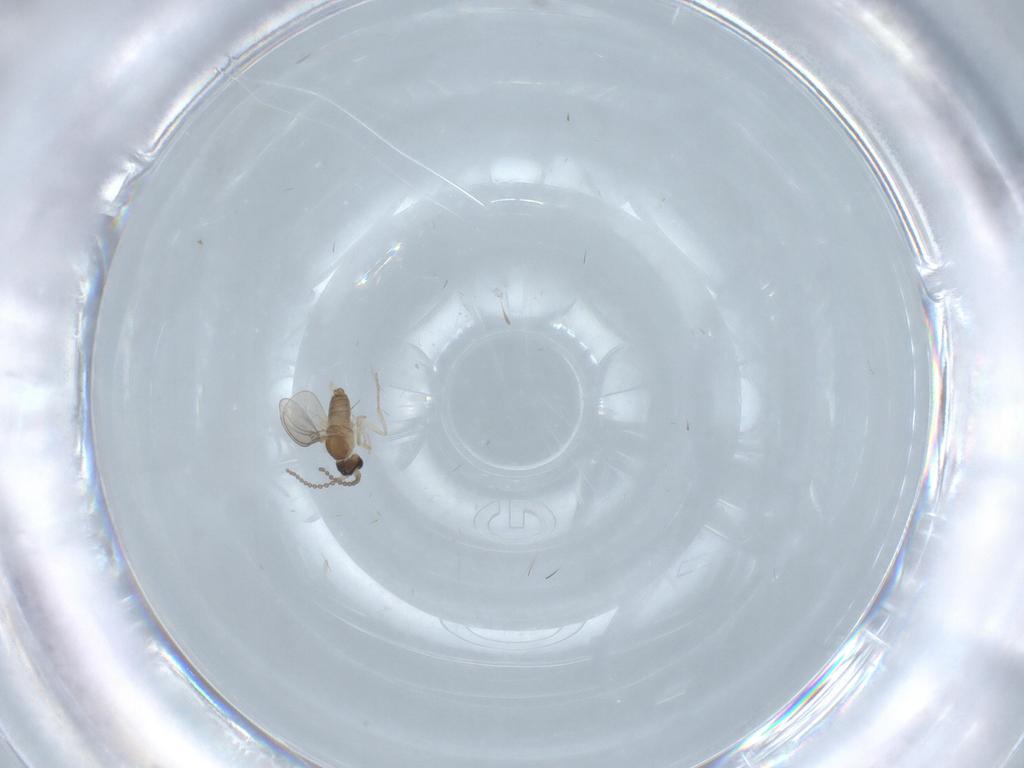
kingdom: Animalia
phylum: Arthropoda
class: Insecta
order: Diptera
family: Cecidomyiidae
